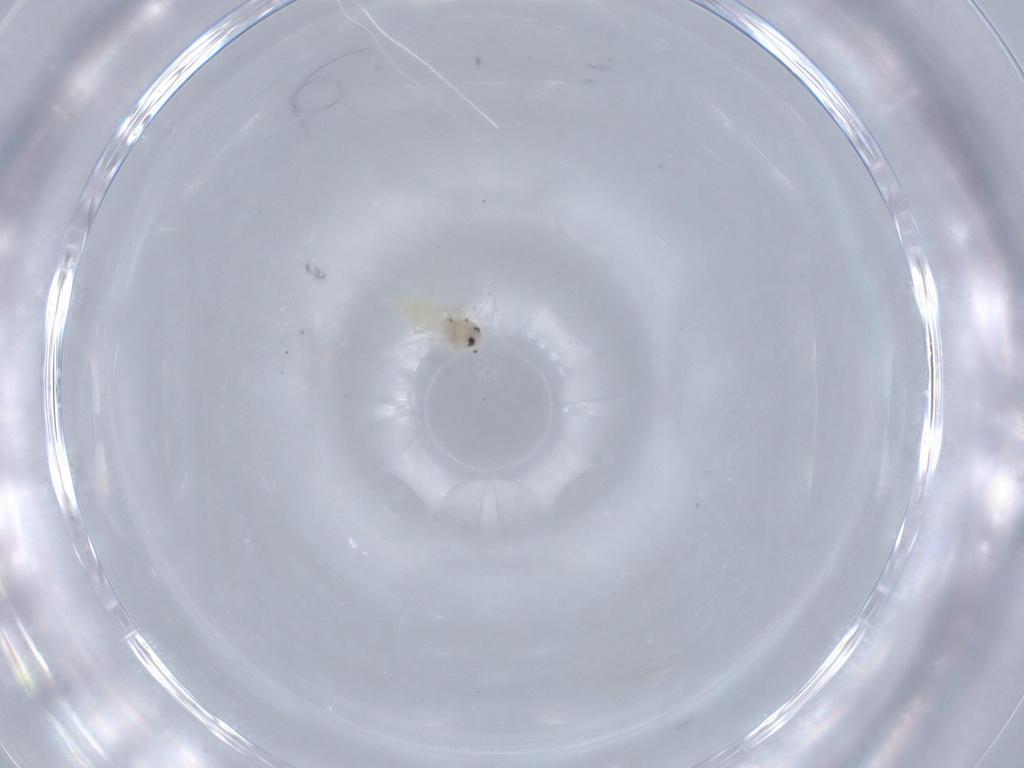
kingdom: Animalia
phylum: Arthropoda
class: Insecta
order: Hemiptera
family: Aleyrodidae
